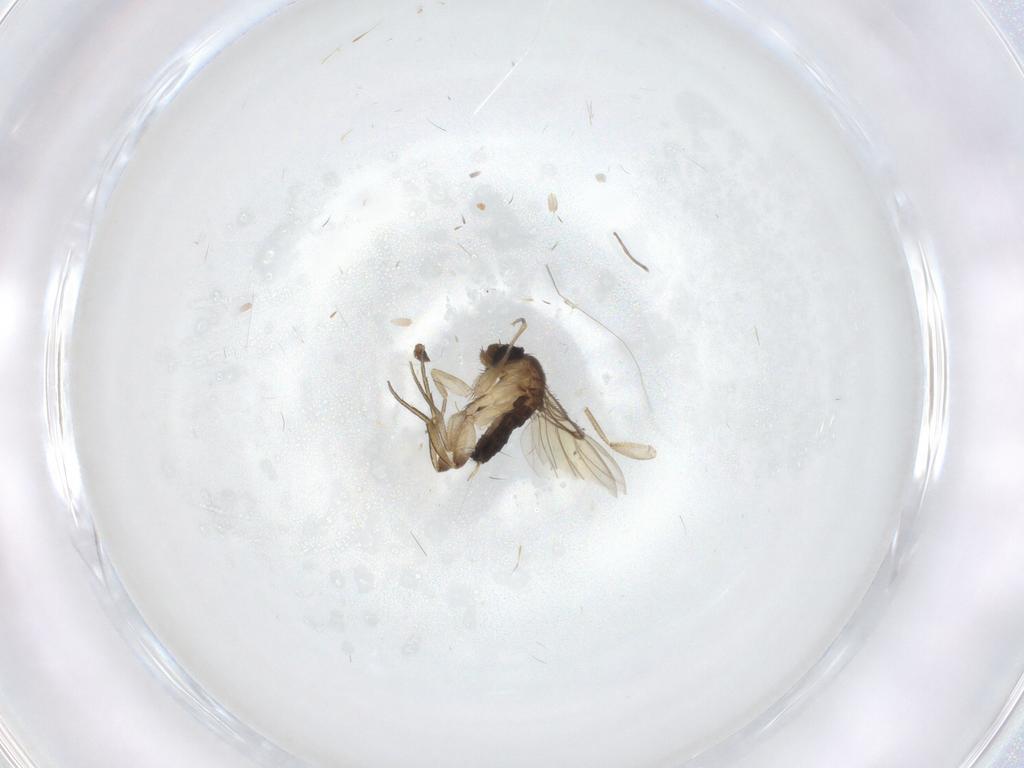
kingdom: Animalia
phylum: Arthropoda
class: Insecta
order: Diptera
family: Phoridae
